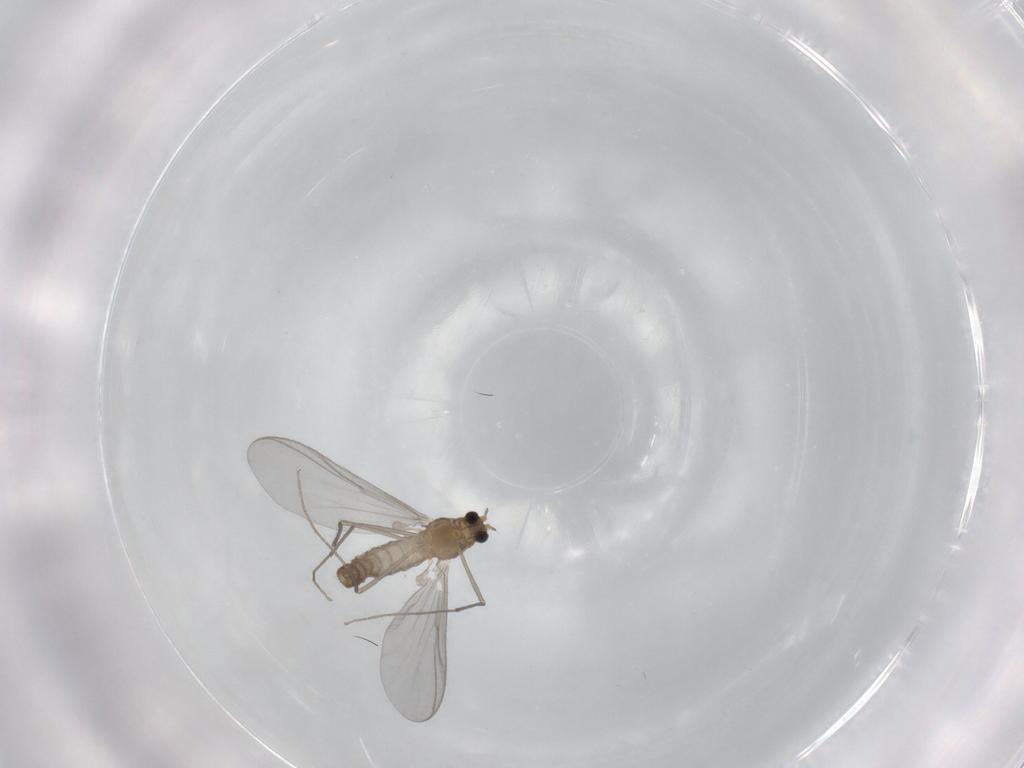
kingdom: Animalia
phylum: Arthropoda
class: Insecta
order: Diptera
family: Chironomidae
